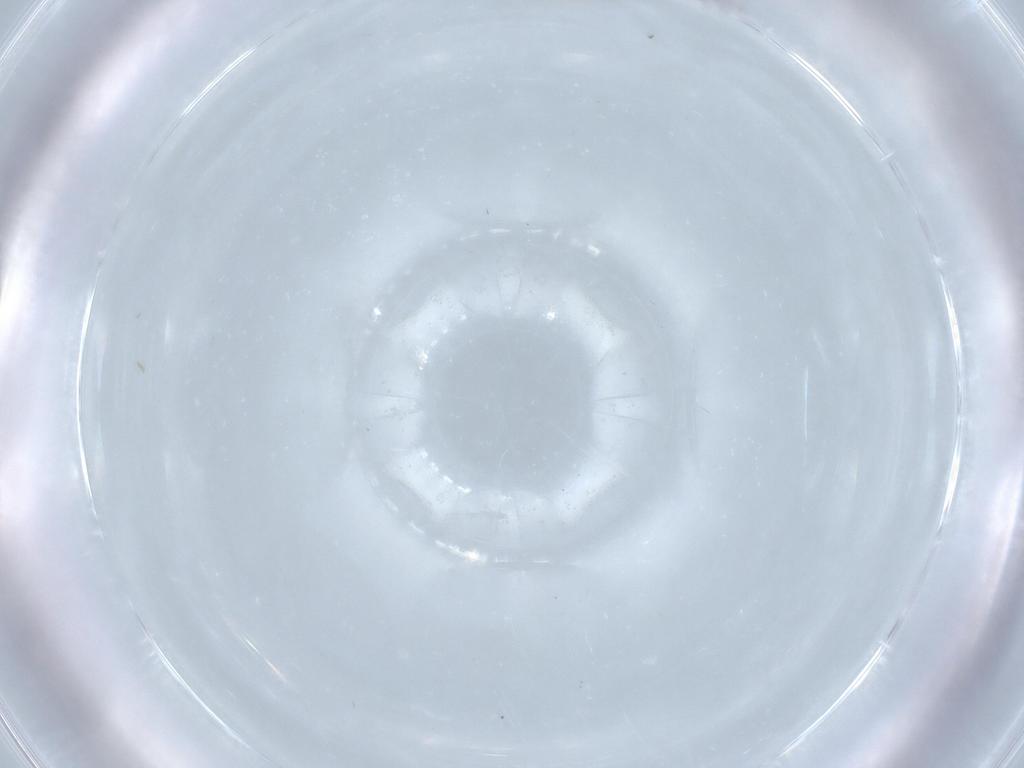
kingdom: Animalia
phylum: Arthropoda
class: Insecta
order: Diptera
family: Cecidomyiidae
